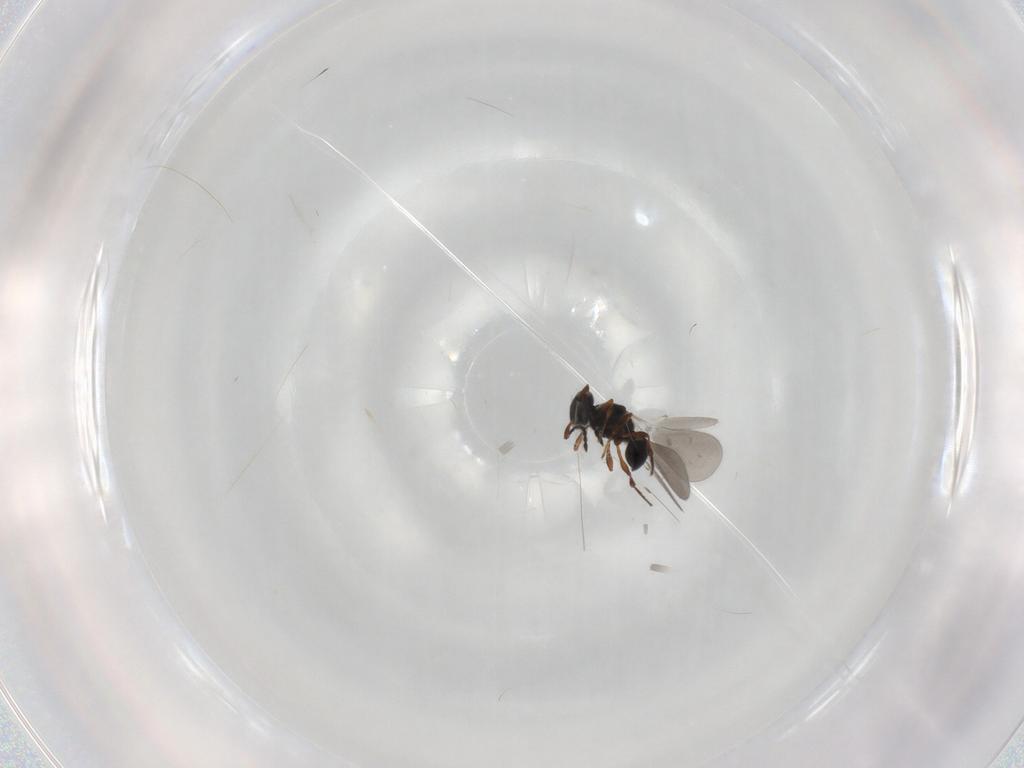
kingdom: Animalia
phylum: Arthropoda
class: Insecta
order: Hymenoptera
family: Platygastridae
